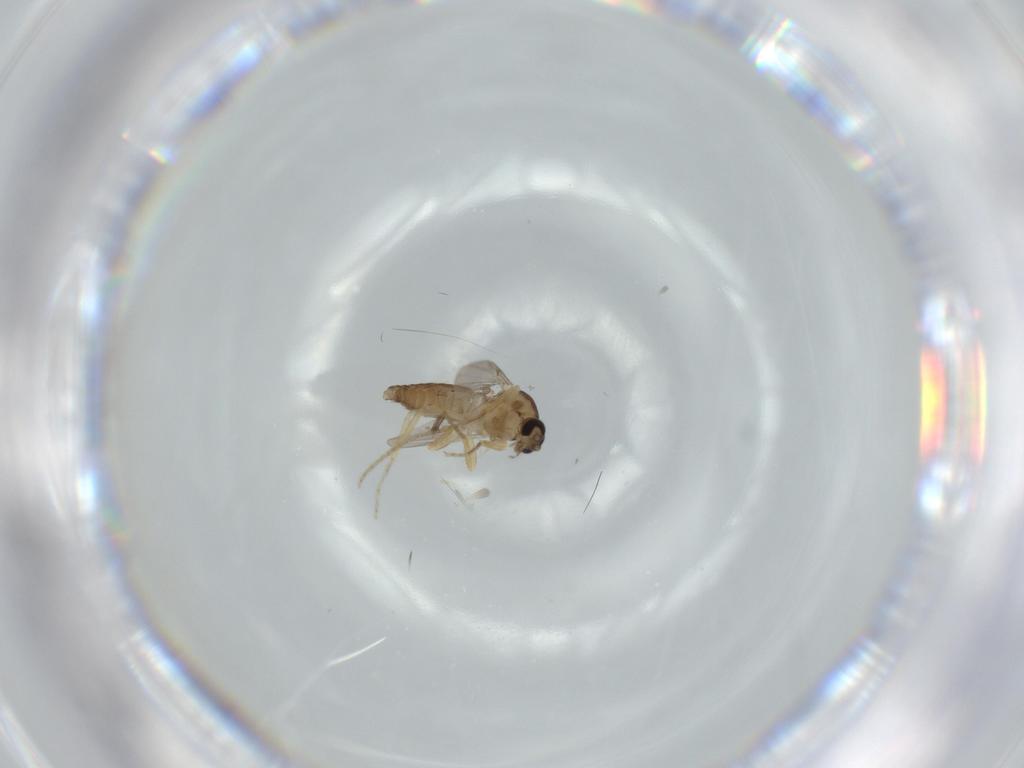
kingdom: Animalia
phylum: Arthropoda
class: Insecta
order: Diptera
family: Ceratopogonidae
